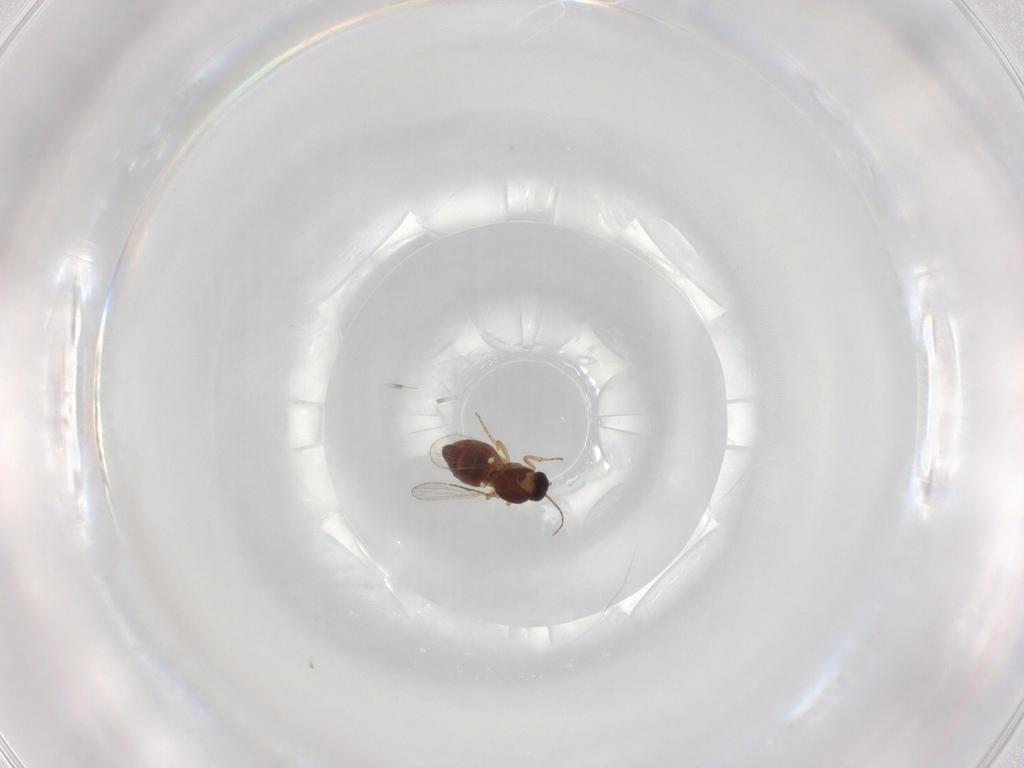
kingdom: Animalia
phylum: Arthropoda
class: Insecta
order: Diptera
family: Ceratopogonidae
